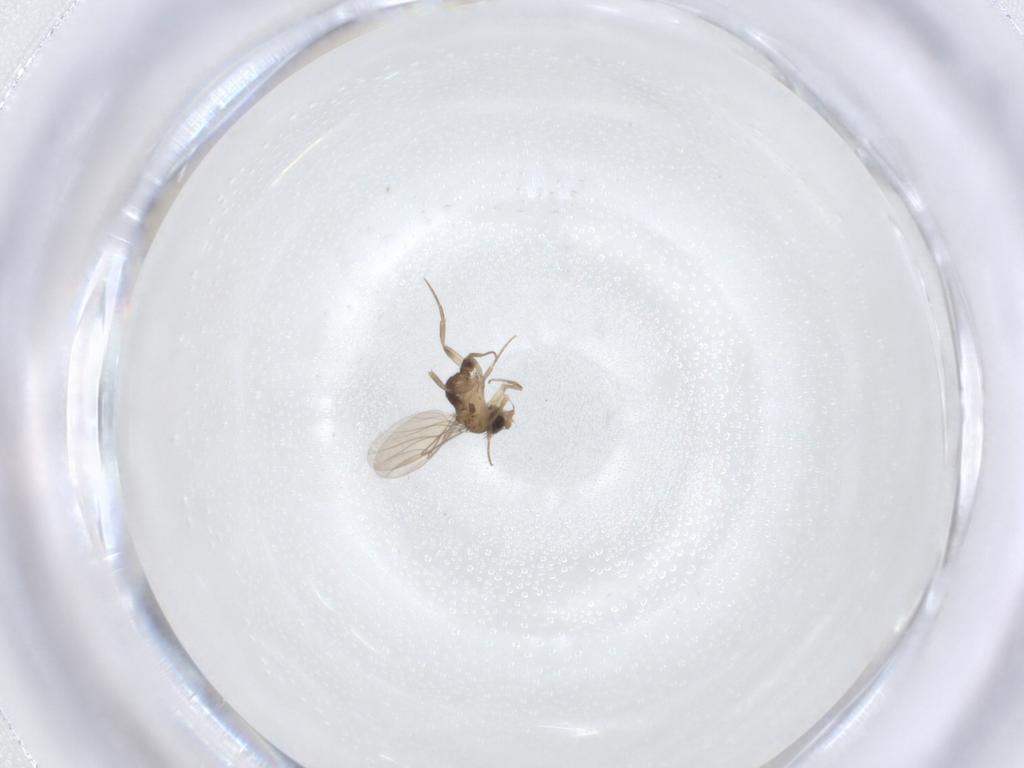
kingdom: Animalia
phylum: Arthropoda
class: Insecta
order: Diptera
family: Phoridae
